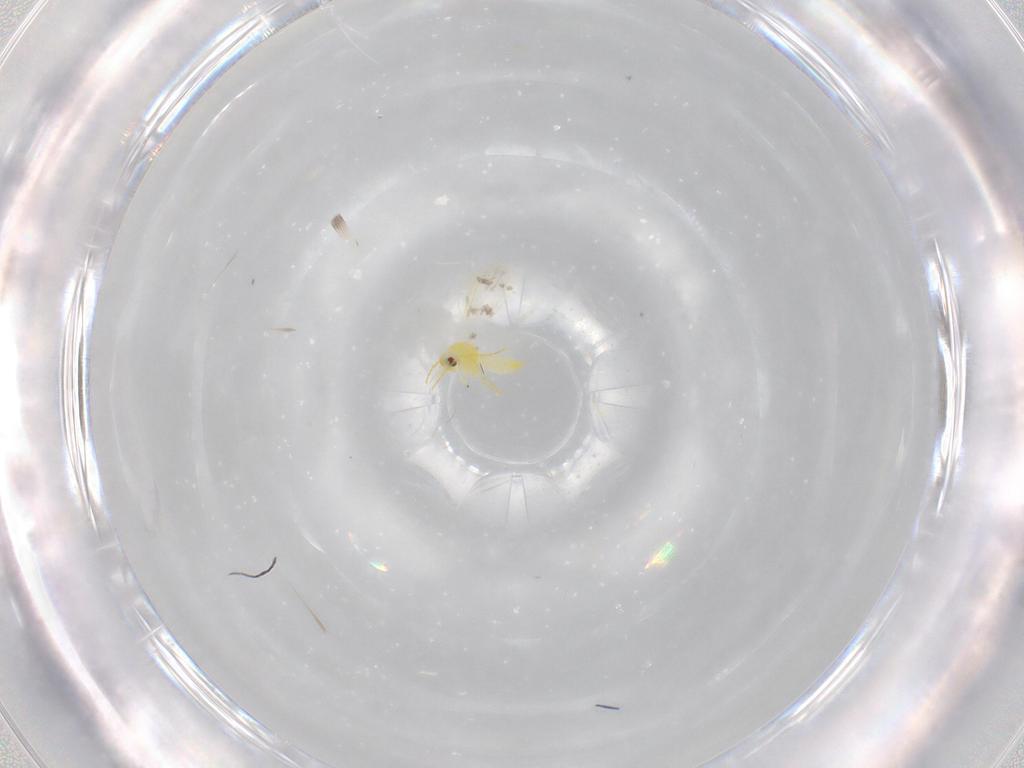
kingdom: Animalia
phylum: Arthropoda
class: Insecta
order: Hemiptera
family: Aleyrodidae
